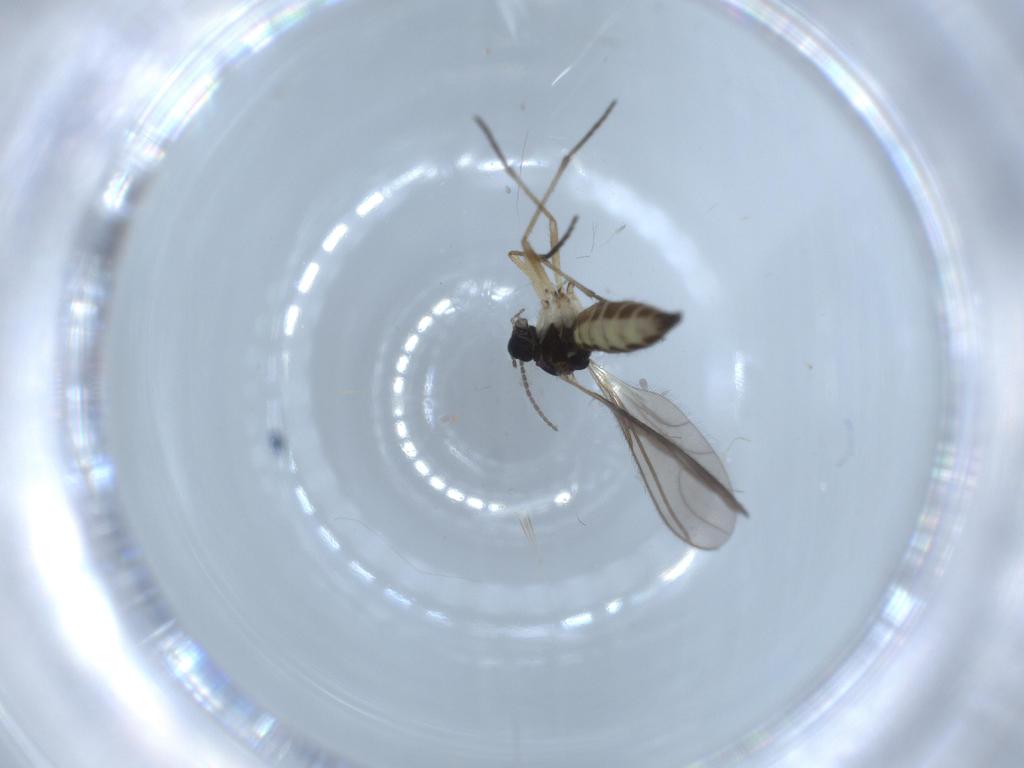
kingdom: Animalia
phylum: Arthropoda
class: Insecta
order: Diptera
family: Sciaridae
